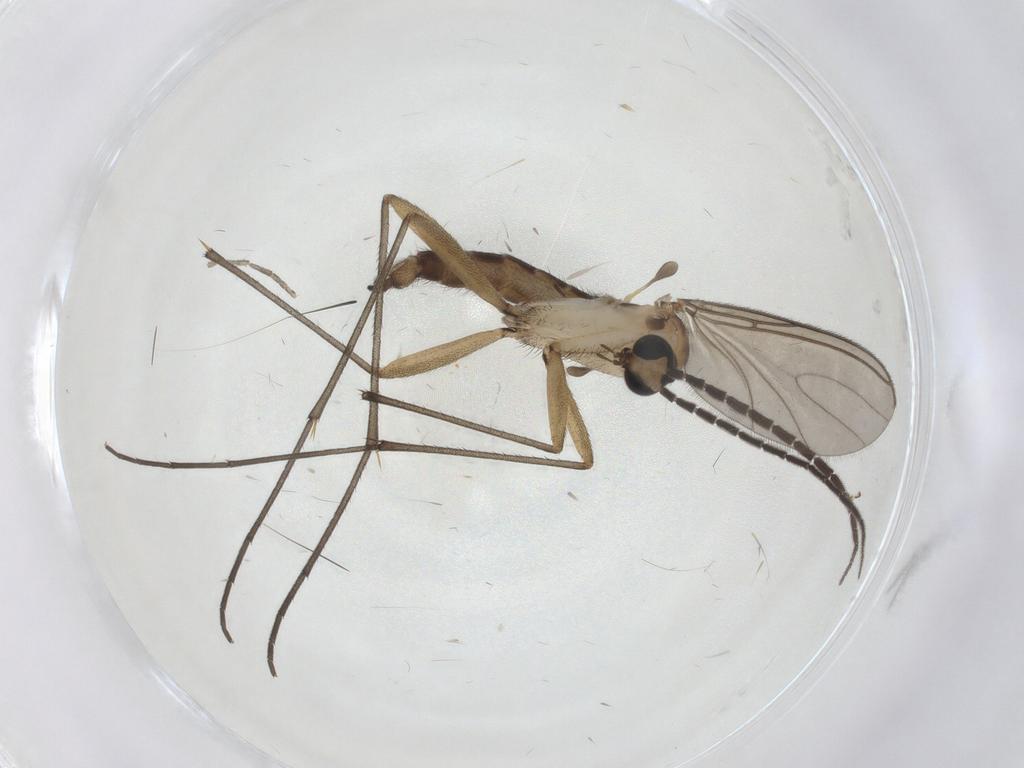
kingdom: Animalia
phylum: Arthropoda
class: Insecta
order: Diptera
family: Sciaridae
